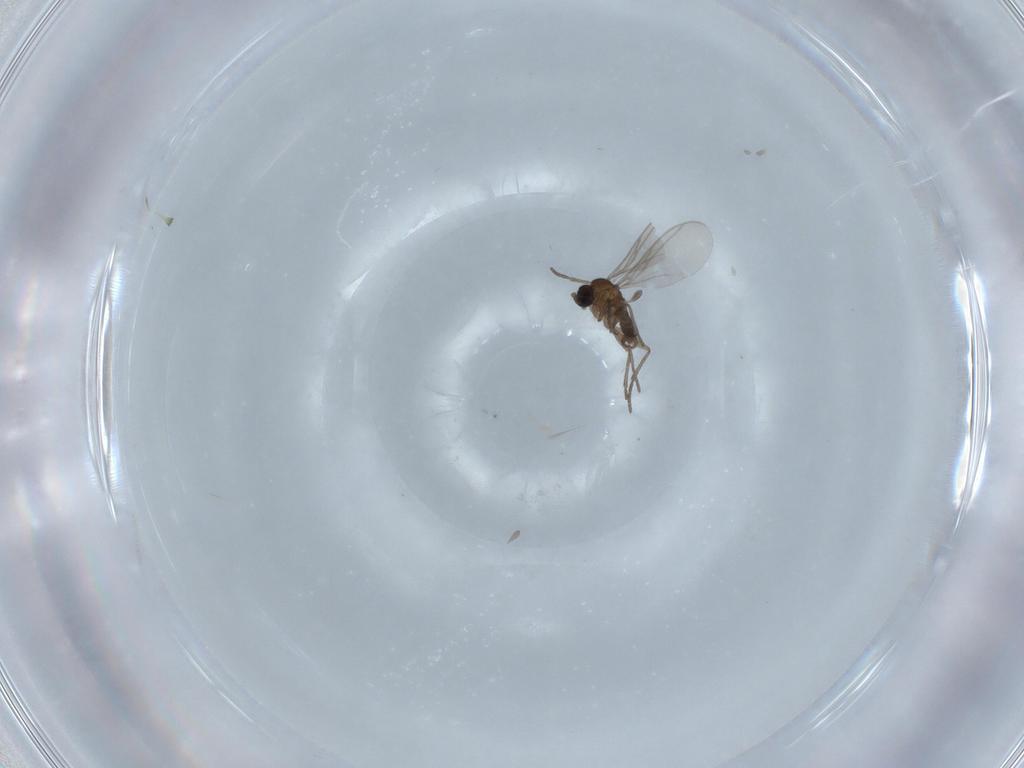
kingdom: Animalia
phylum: Arthropoda
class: Insecta
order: Diptera
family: Sciaridae
